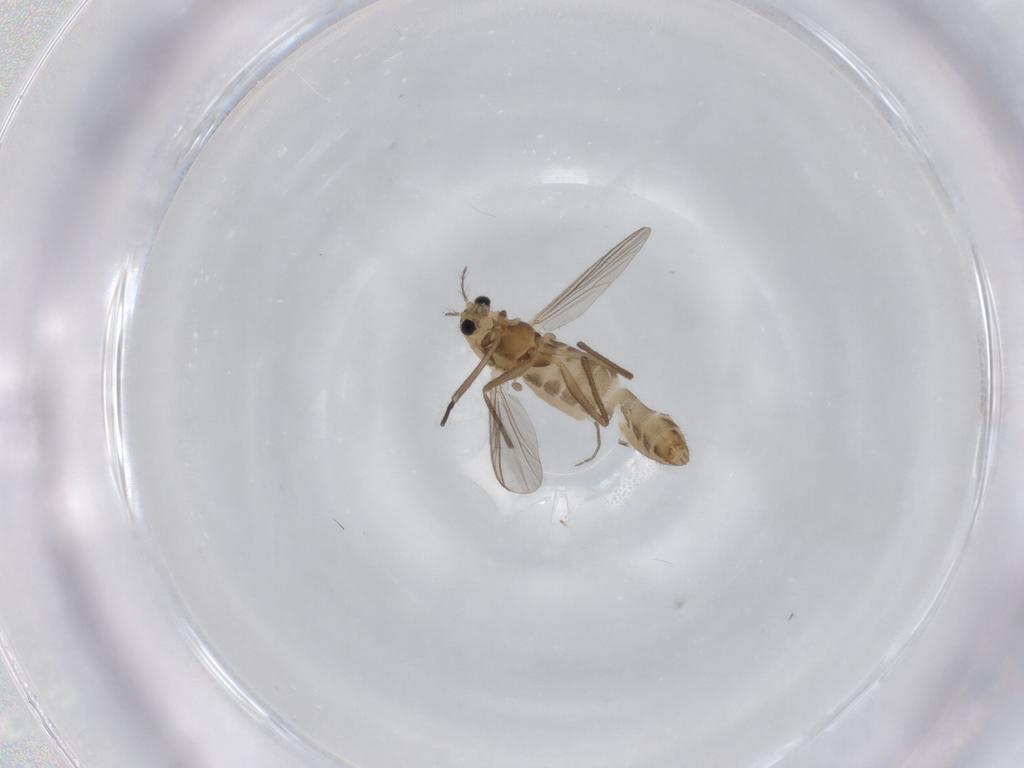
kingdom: Animalia
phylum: Arthropoda
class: Insecta
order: Diptera
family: Chironomidae
